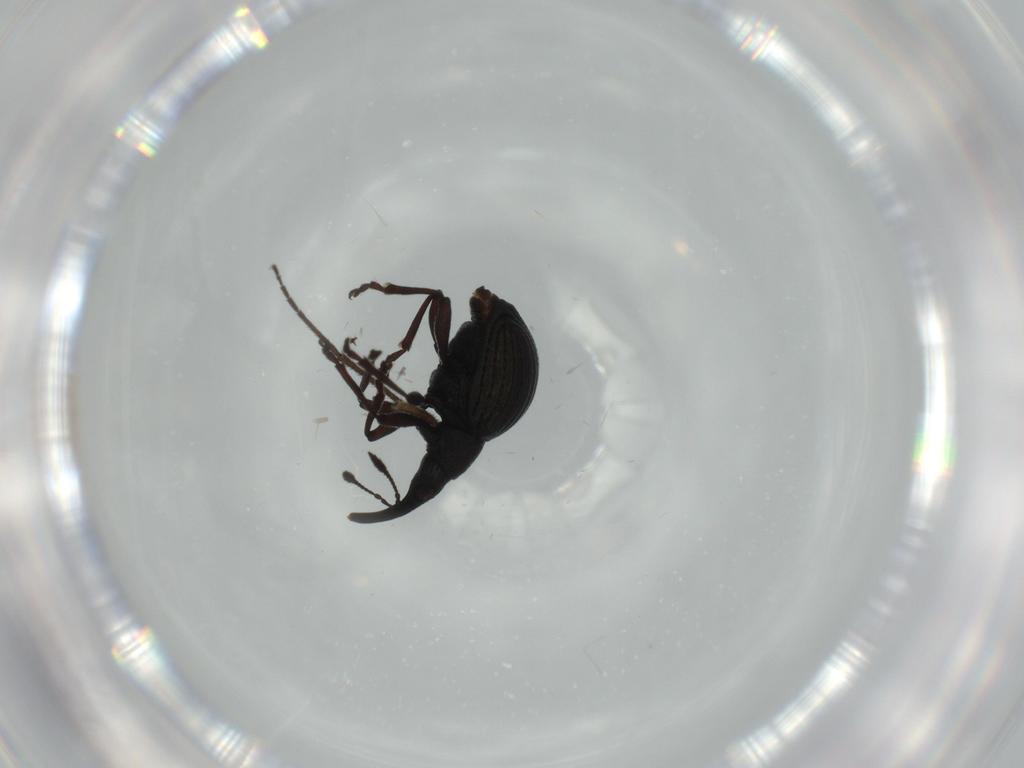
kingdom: Animalia
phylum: Arthropoda
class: Insecta
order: Coleoptera
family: Brentidae
